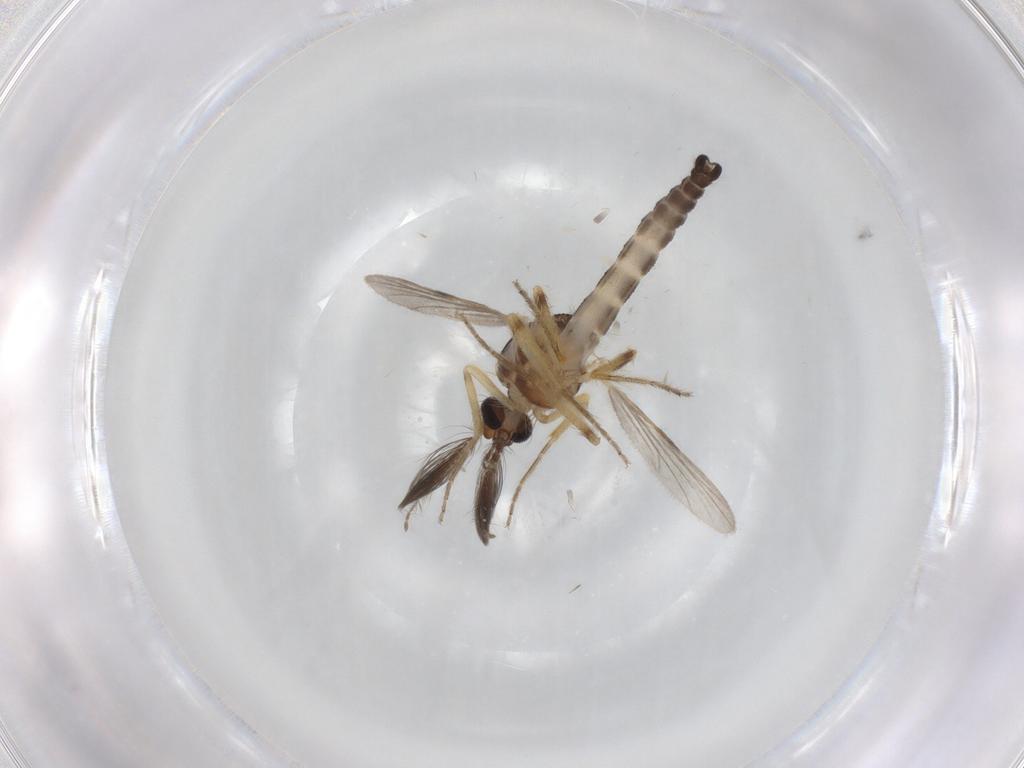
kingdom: Animalia
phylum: Arthropoda
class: Insecta
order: Diptera
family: Ceratopogonidae
